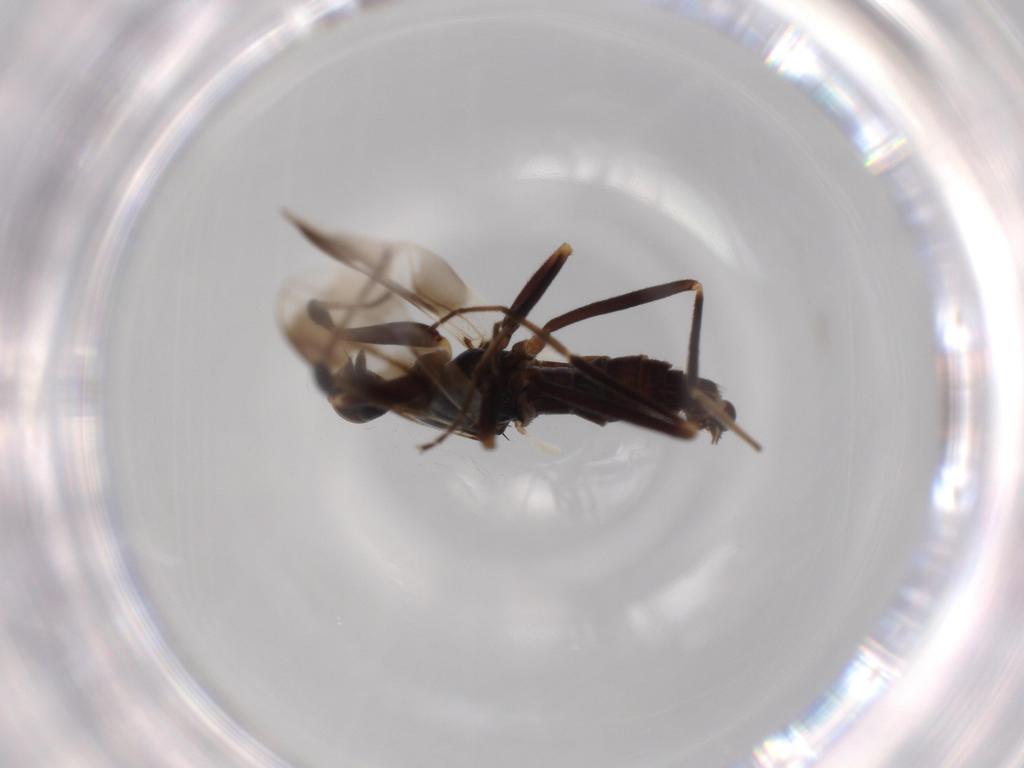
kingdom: Animalia
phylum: Arthropoda
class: Insecta
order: Diptera
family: Hybotidae
